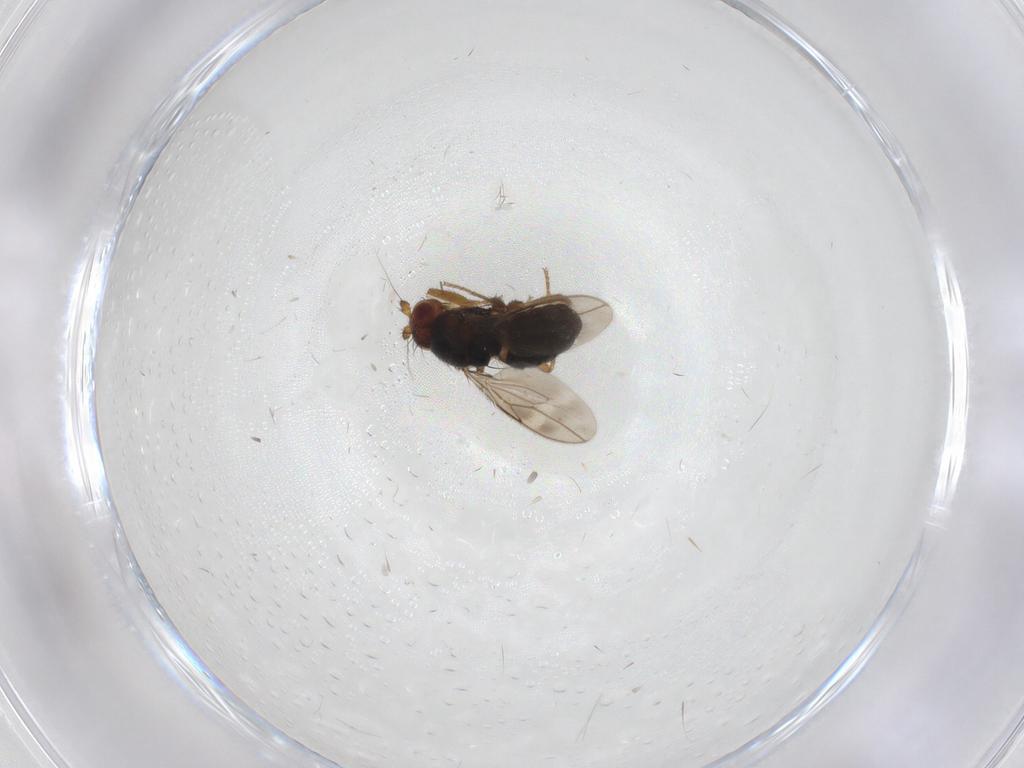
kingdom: Animalia
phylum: Arthropoda
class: Insecta
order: Diptera
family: Sphaeroceridae
